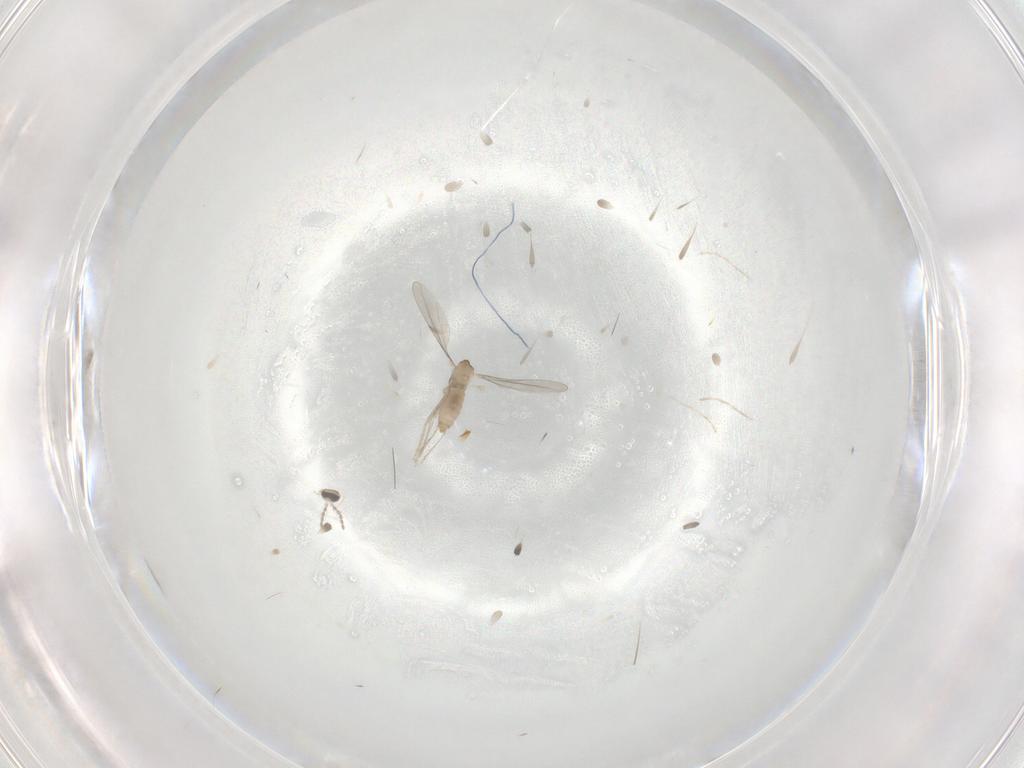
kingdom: Animalia
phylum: Arthropoda
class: Insecta
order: Diptera
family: Cecidomyiidae
